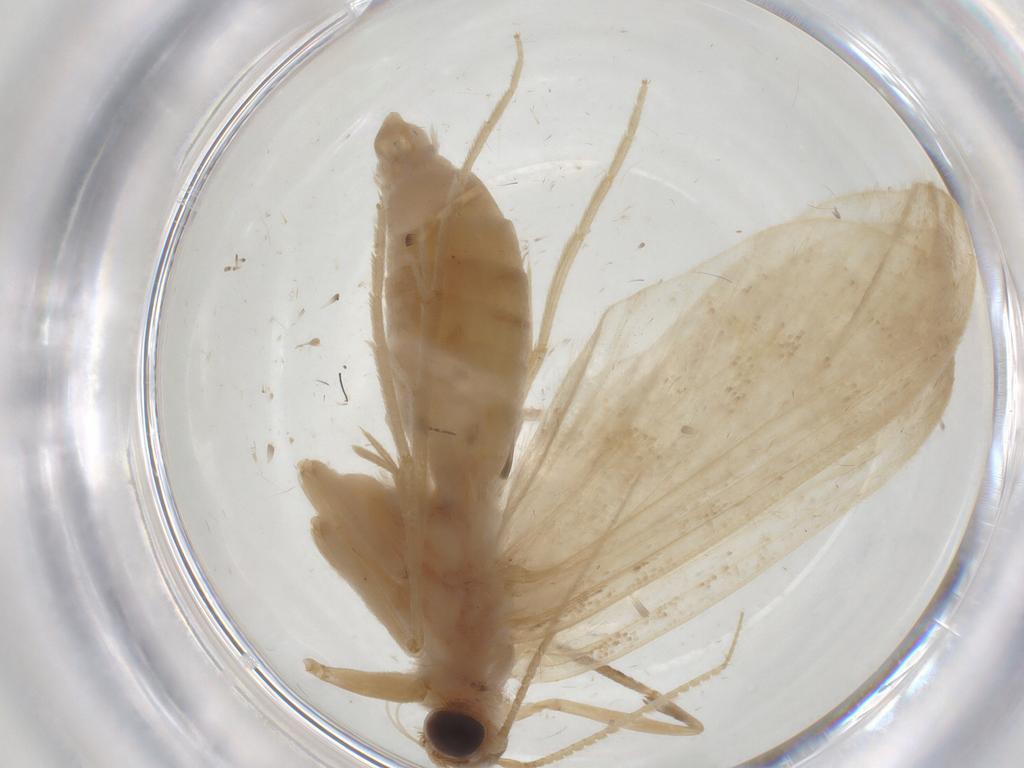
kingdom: Animalia
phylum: Arthropoda
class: Insecta
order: Lepidoptera
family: Crambidae
